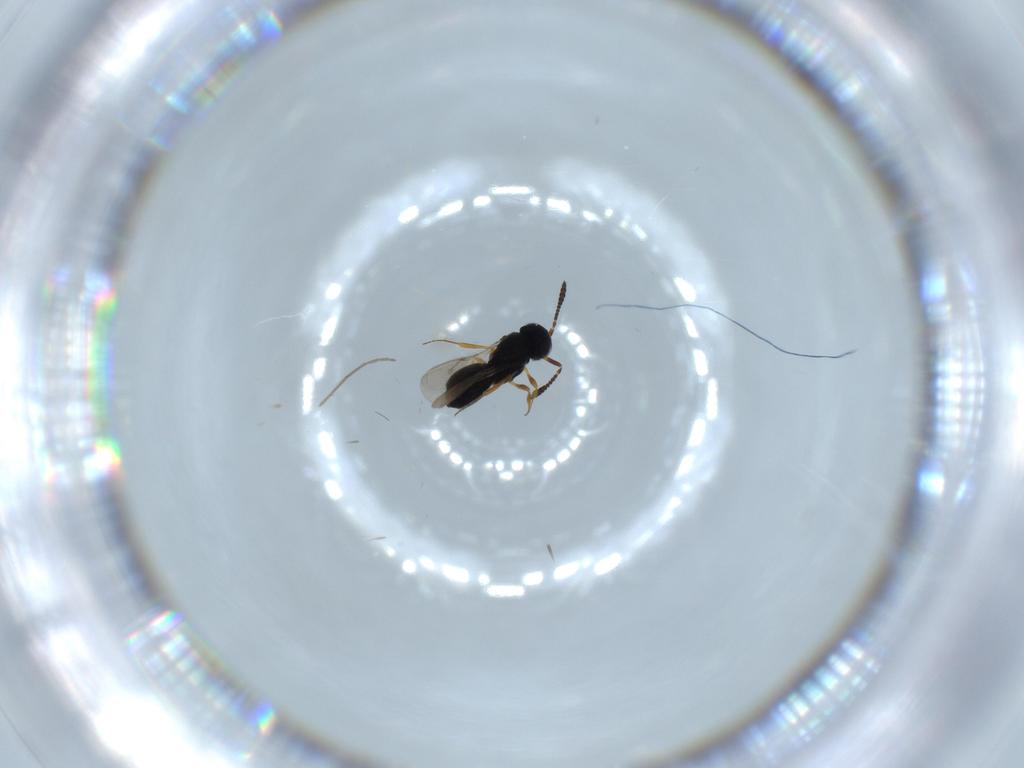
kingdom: Animalia
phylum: Arthropoda
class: Insecta
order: Hymenoptera
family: Scelionidae
